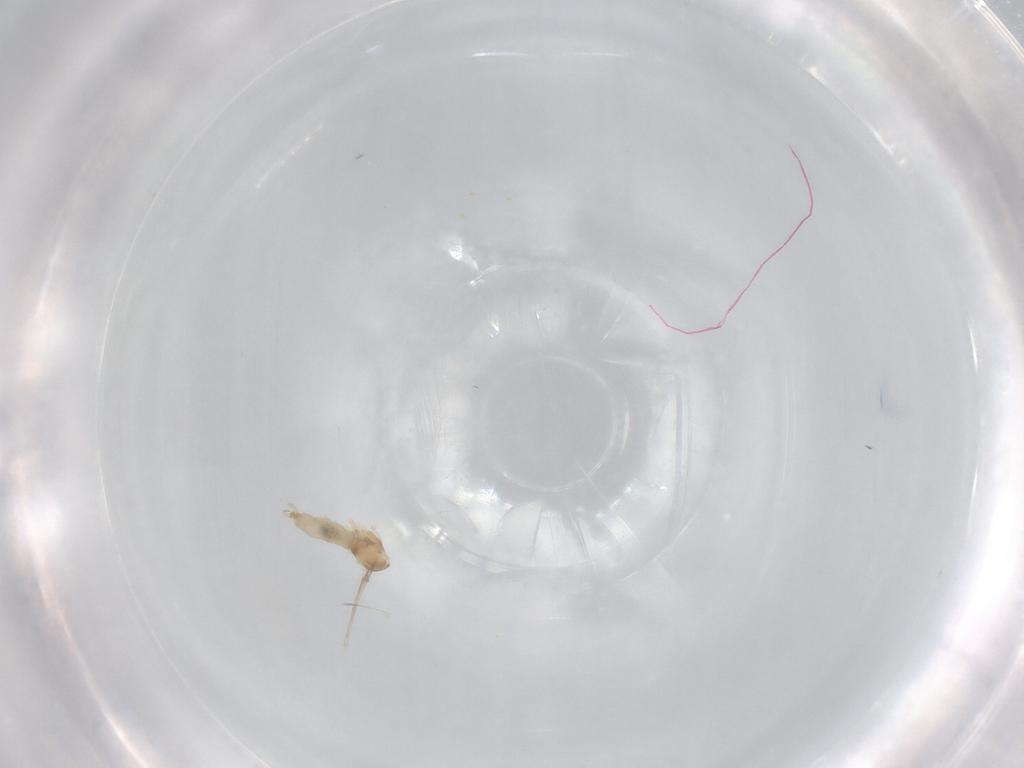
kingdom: Animalia
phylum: Arthropoda
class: Insecta
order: Diptera
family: Cecidomyiidae
